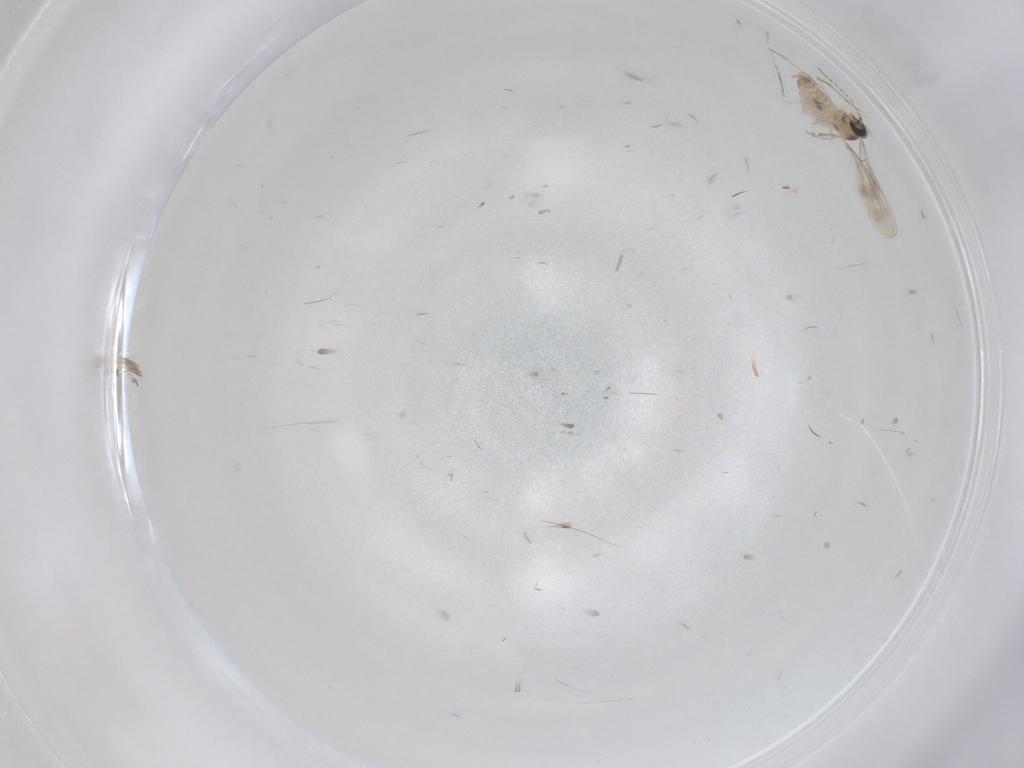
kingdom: Animalia
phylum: Arthropoda
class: Insecta
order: Diptera
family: Cecidomyiidae
